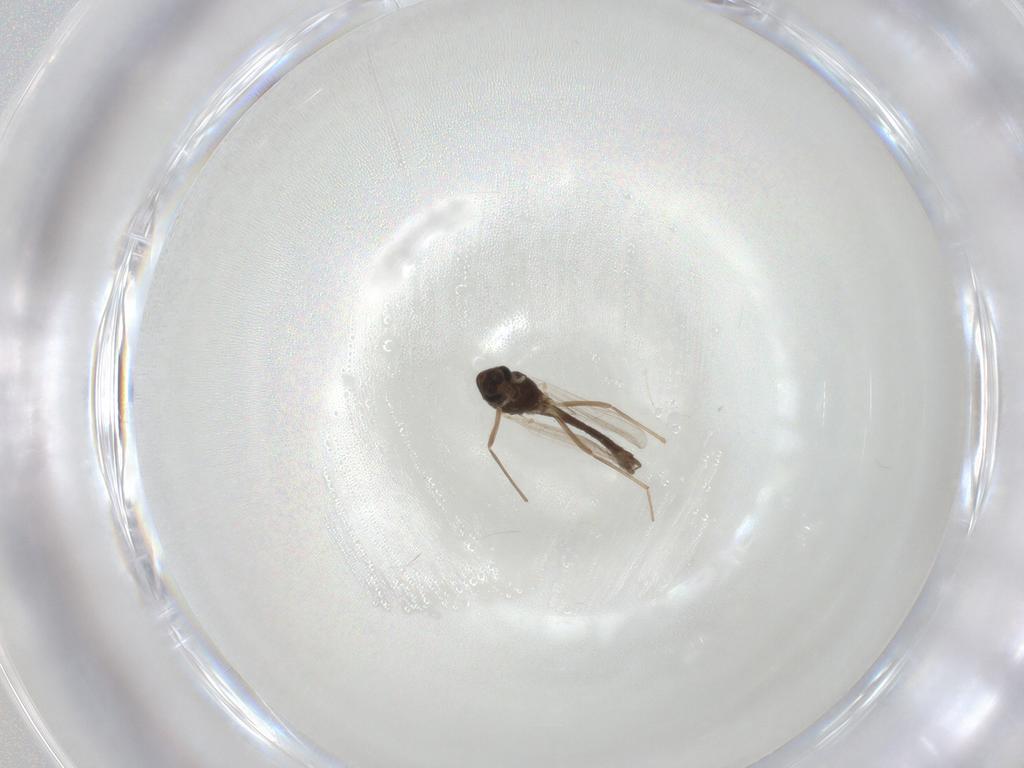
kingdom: Animalia
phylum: Arthropoda
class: Insecta
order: Diptera
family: Chironomidae
